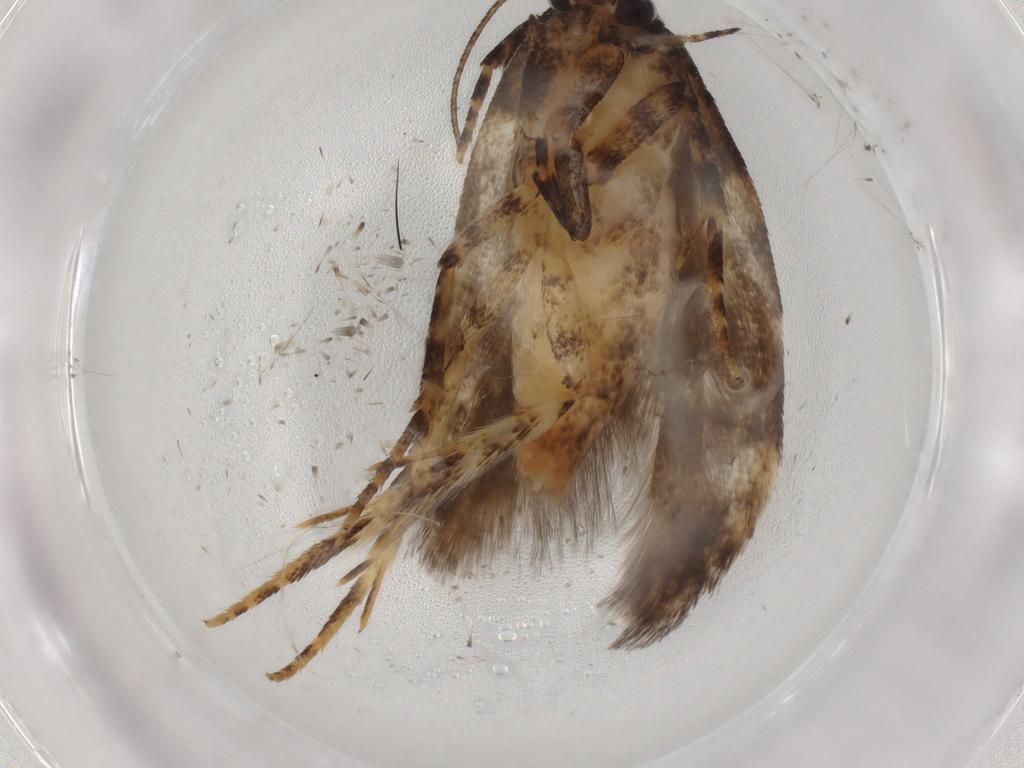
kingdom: Animalia
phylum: Arthropoda
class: Insecta
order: Lepidoptera
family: Gelechiidae
